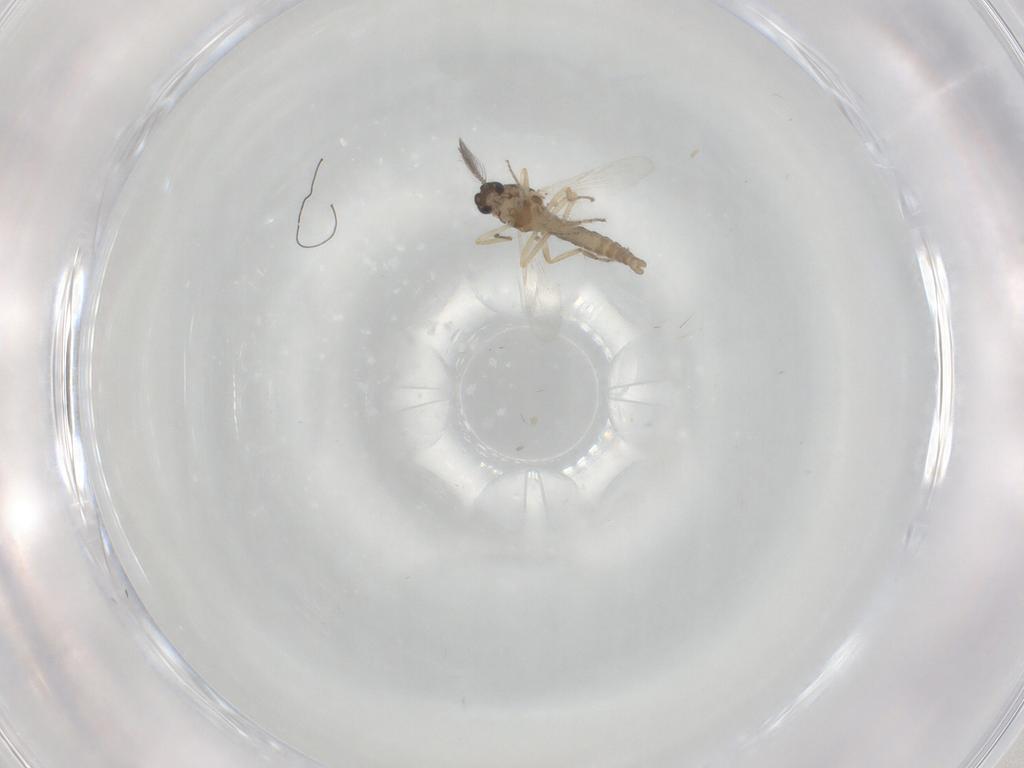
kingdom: Animalia
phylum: Arthropoda
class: Insecta
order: Diptera
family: Ceratopogonidae
